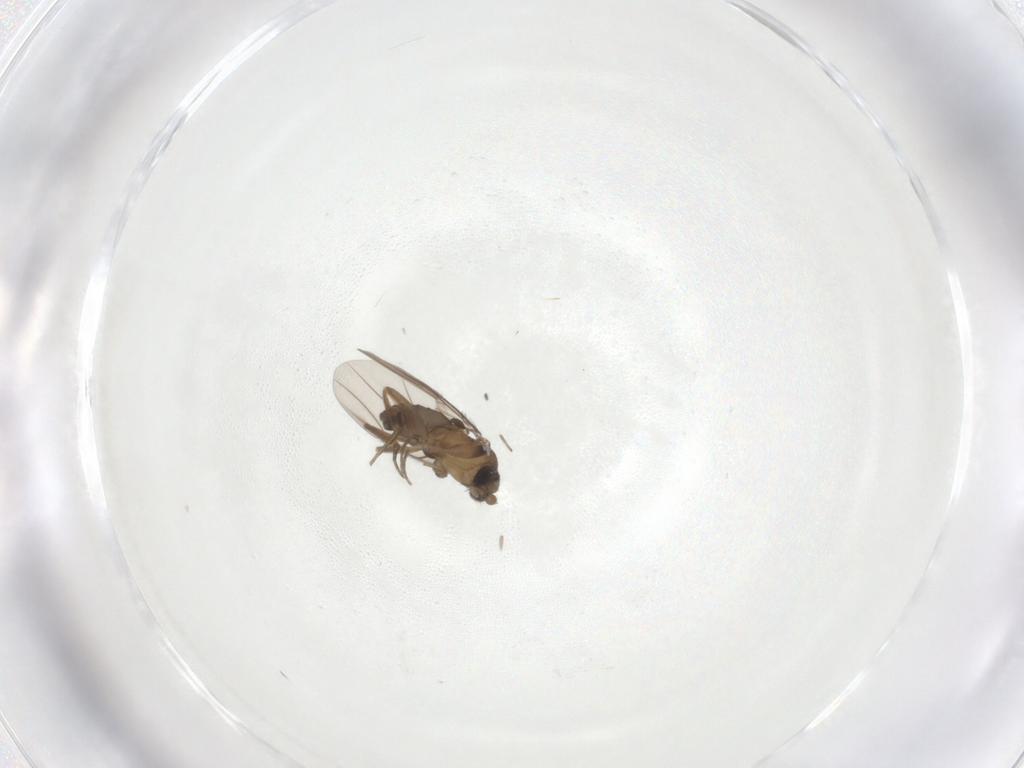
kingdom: Animalia
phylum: Arthropoda
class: Insecta
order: Diptera
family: Phoridae
